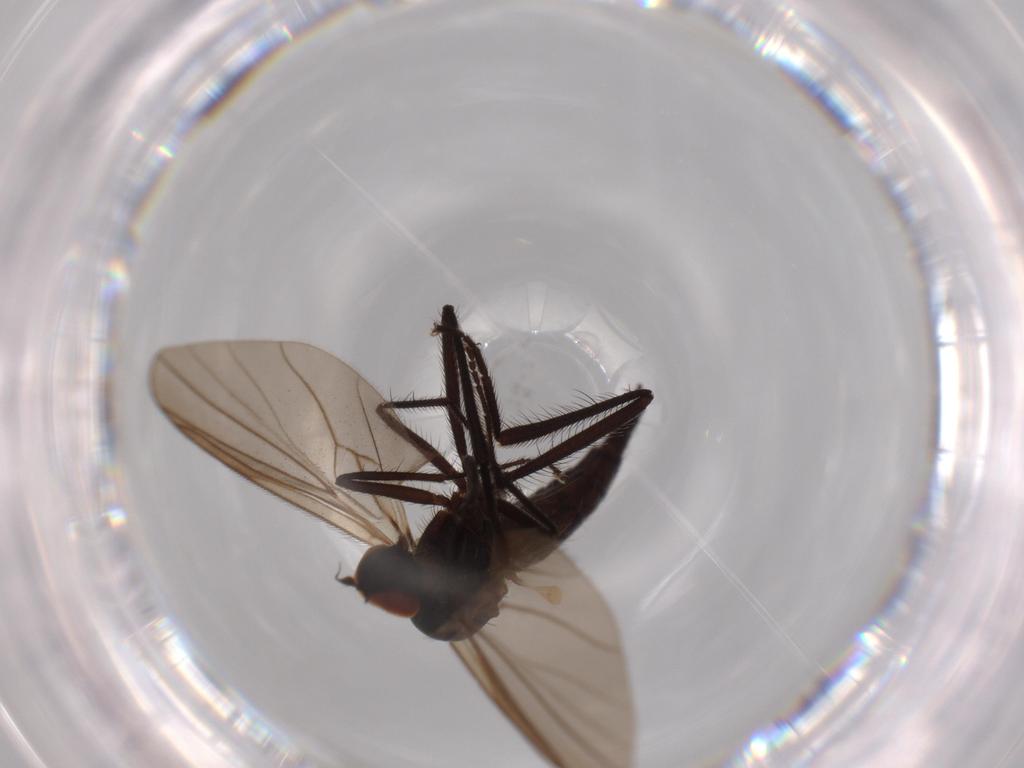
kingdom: Animalia
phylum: Arthropoda
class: Insecta
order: Diptera
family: Hybotidae
